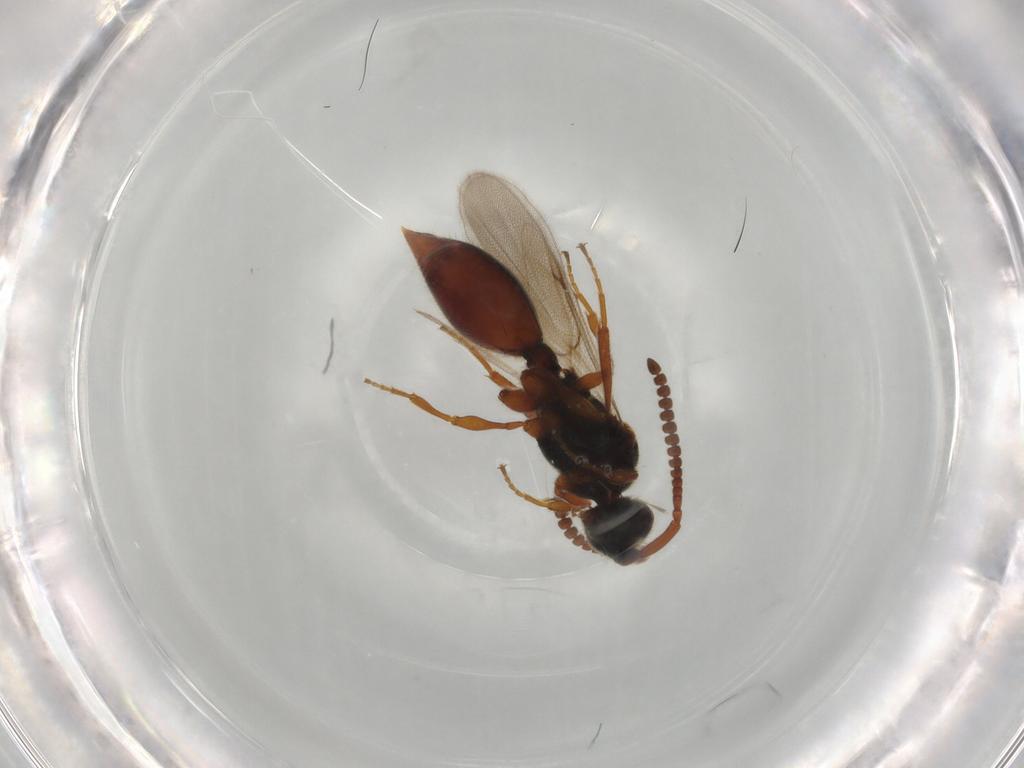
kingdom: Animalia
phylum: Arthropoda
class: Insecta
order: Hymenoptera
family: Diapriidae
